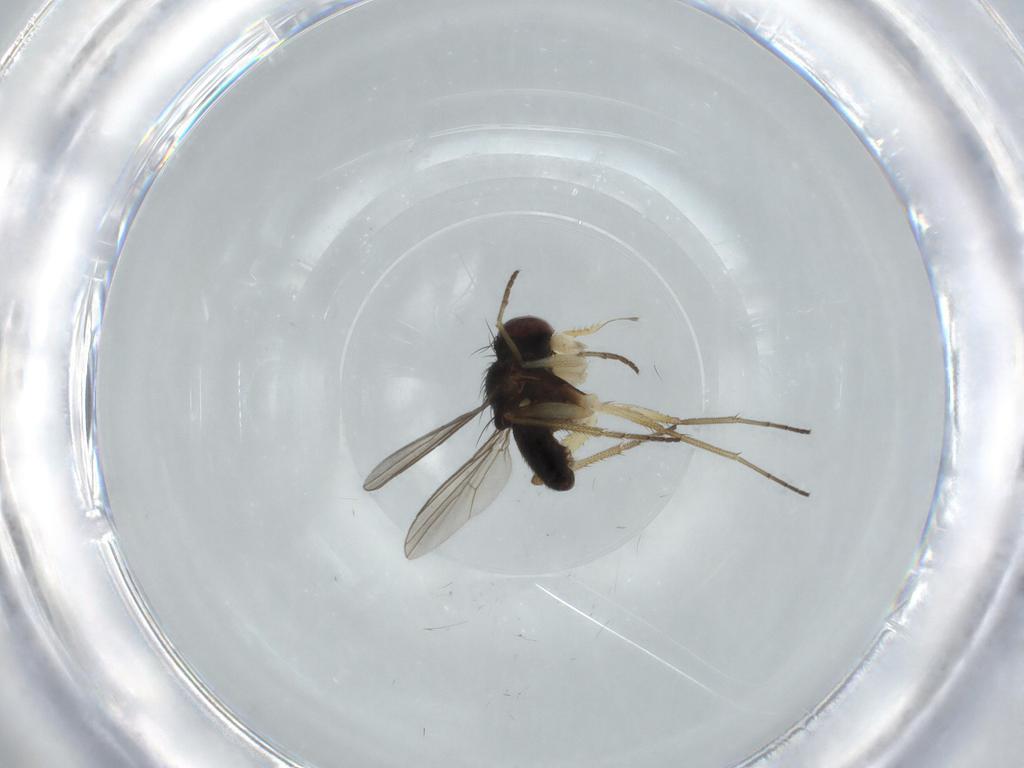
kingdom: Animalia
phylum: Arthropoda
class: Insecta
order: Diptera
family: Dolichopodidae
